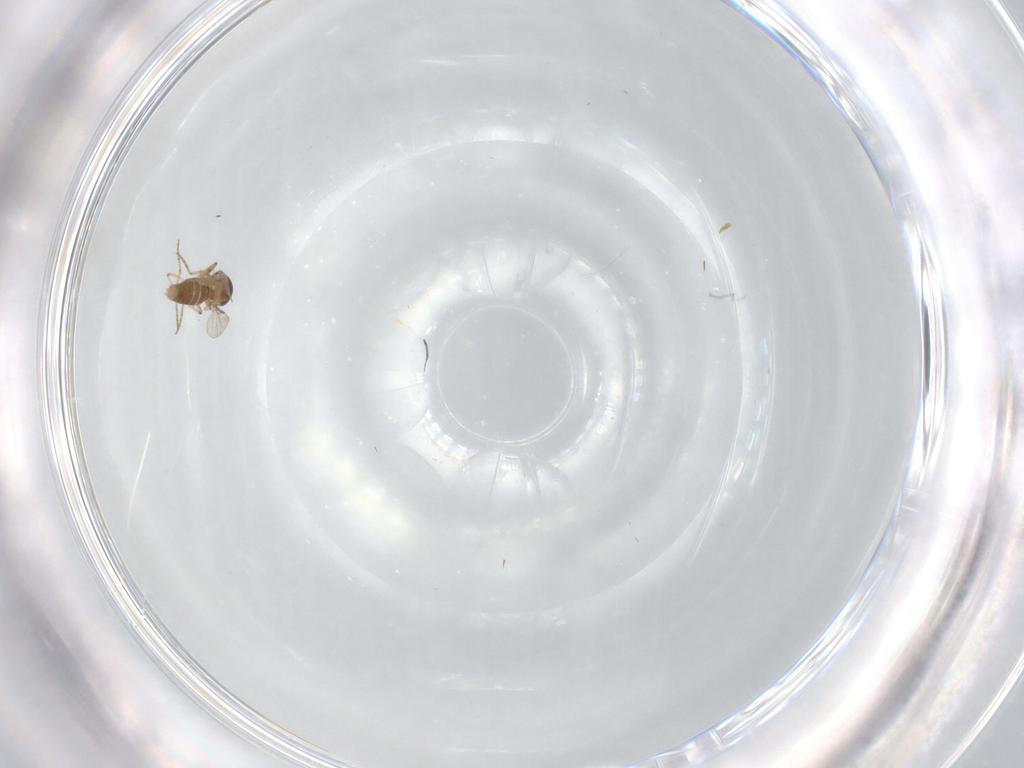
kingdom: Animalia
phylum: Arthropoda
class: Insecta
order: Diptera
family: Ceratopogonidae
